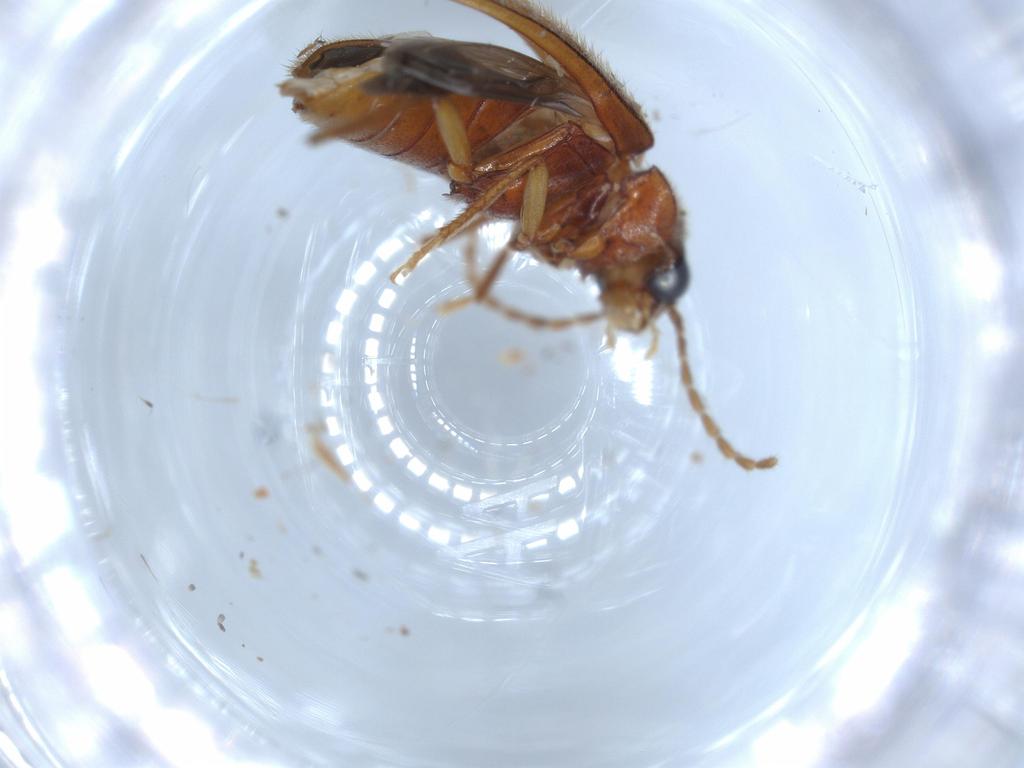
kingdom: Animalia
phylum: Arthropoda
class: Insecta
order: Coleoptera
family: Ptilodactylidae
